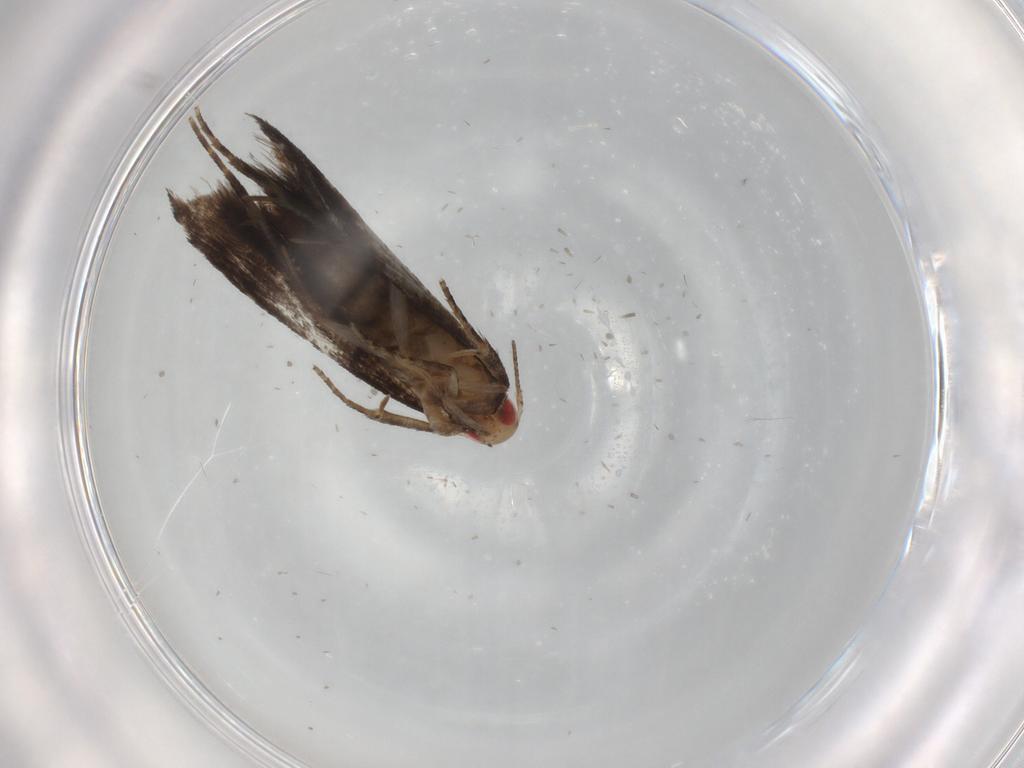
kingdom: Animalia
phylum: Arthropoda
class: Insecta
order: Lepidoptera
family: Gelechiidae
